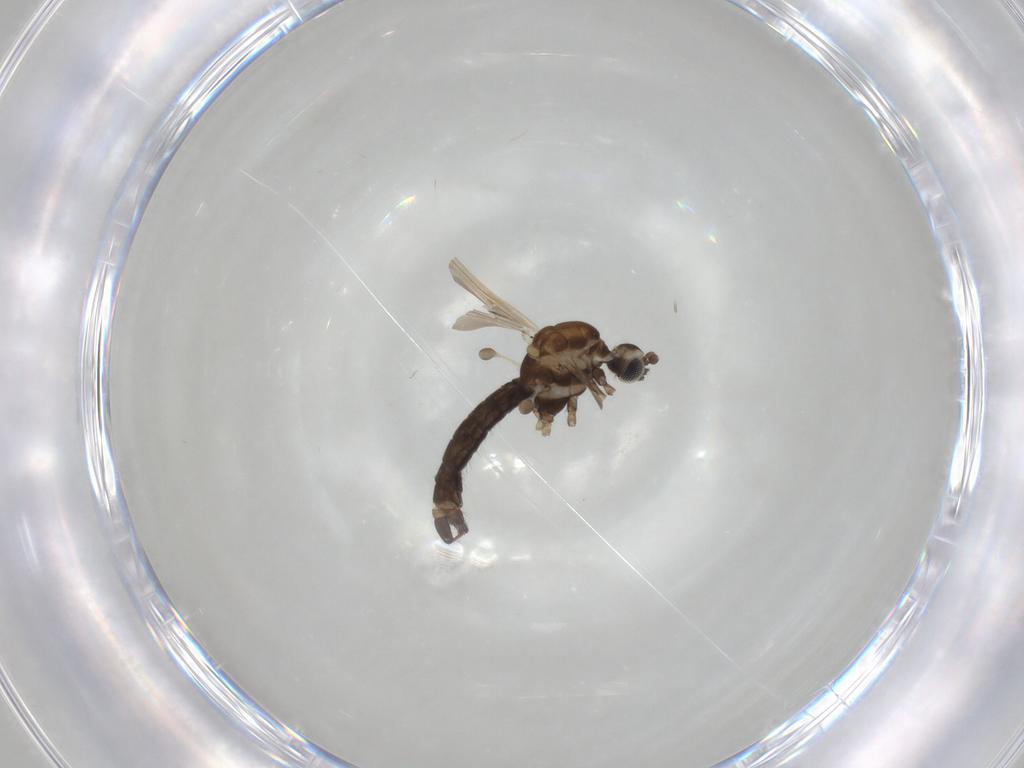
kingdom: Animalia
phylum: Arthropoda
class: Insecta
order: Diptera
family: Limoniidae
